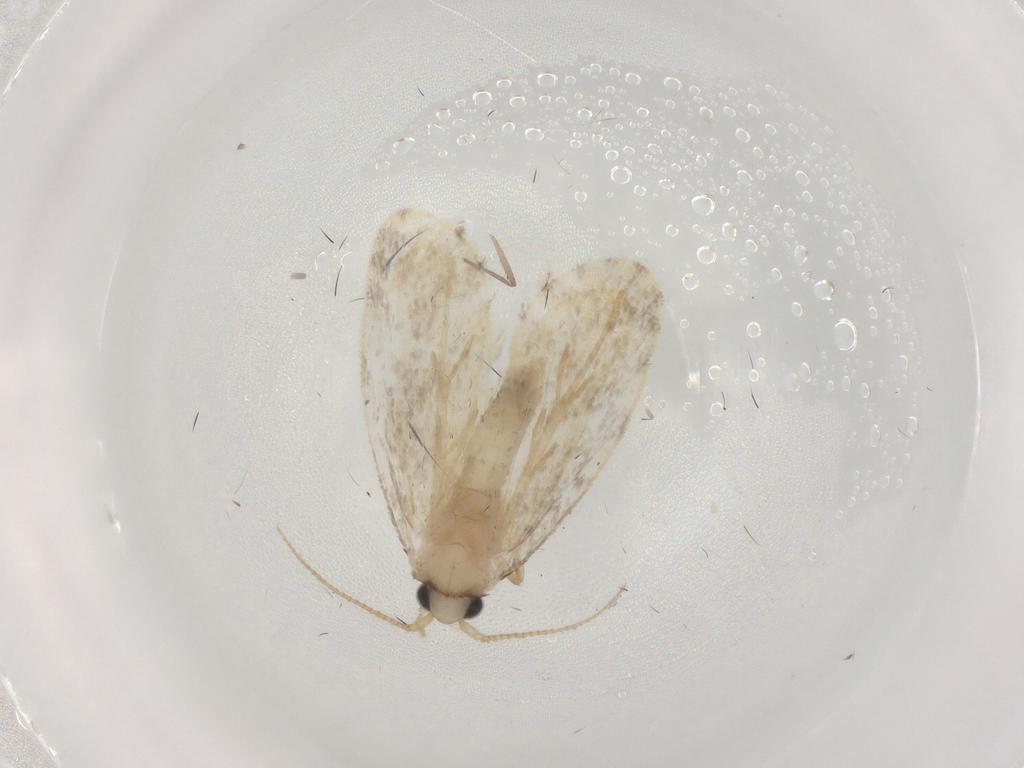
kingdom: Animalia
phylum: Arthropoda
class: Insecta
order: Lepidoptera
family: Psychidae
